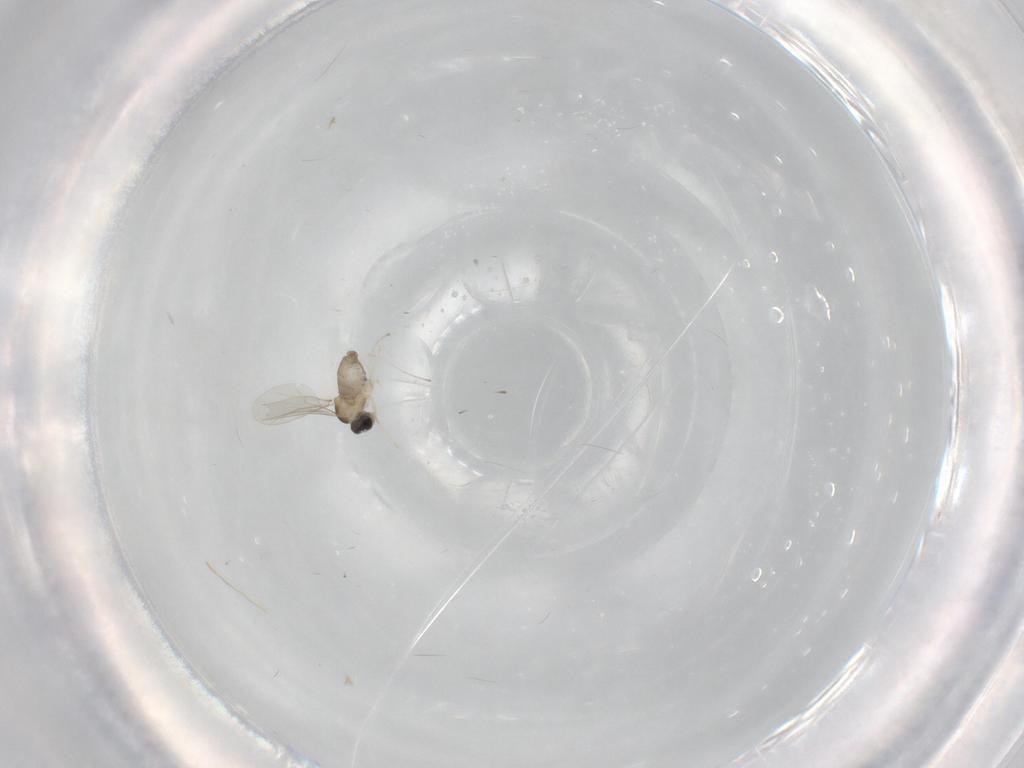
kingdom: Animalia
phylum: Arthropoda
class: Insecta
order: Diptera
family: Cecidomyiidae
